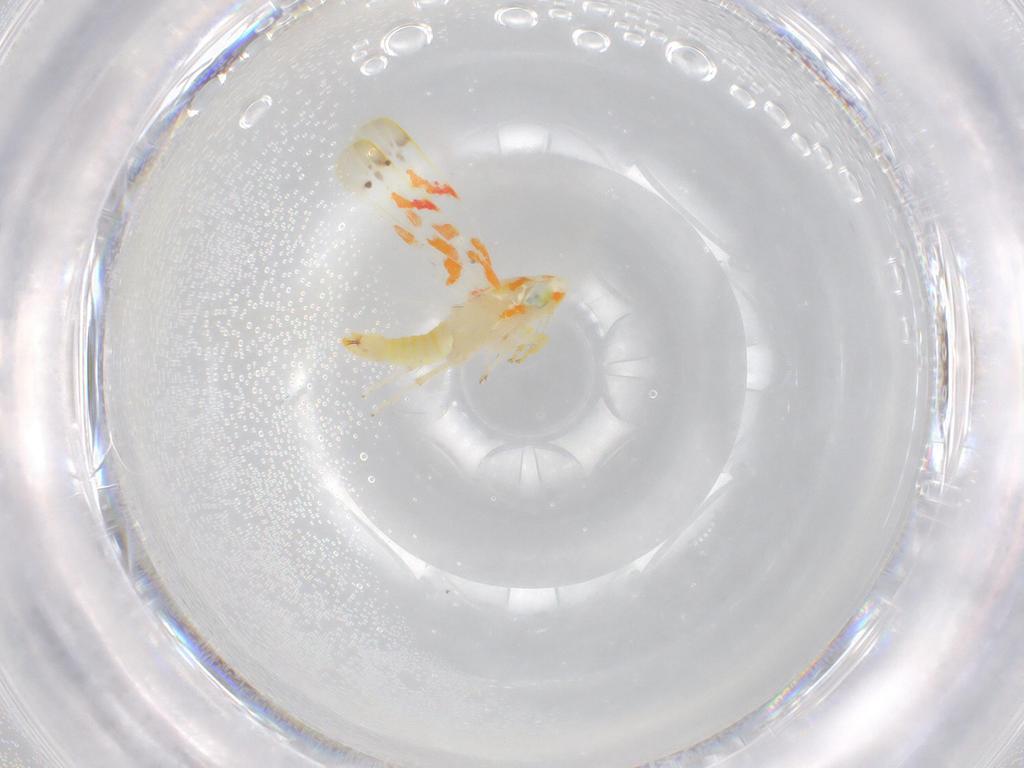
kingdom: Animalia
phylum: Arthropoda
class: Insecta
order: Hemiptera
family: Cicadellidae
